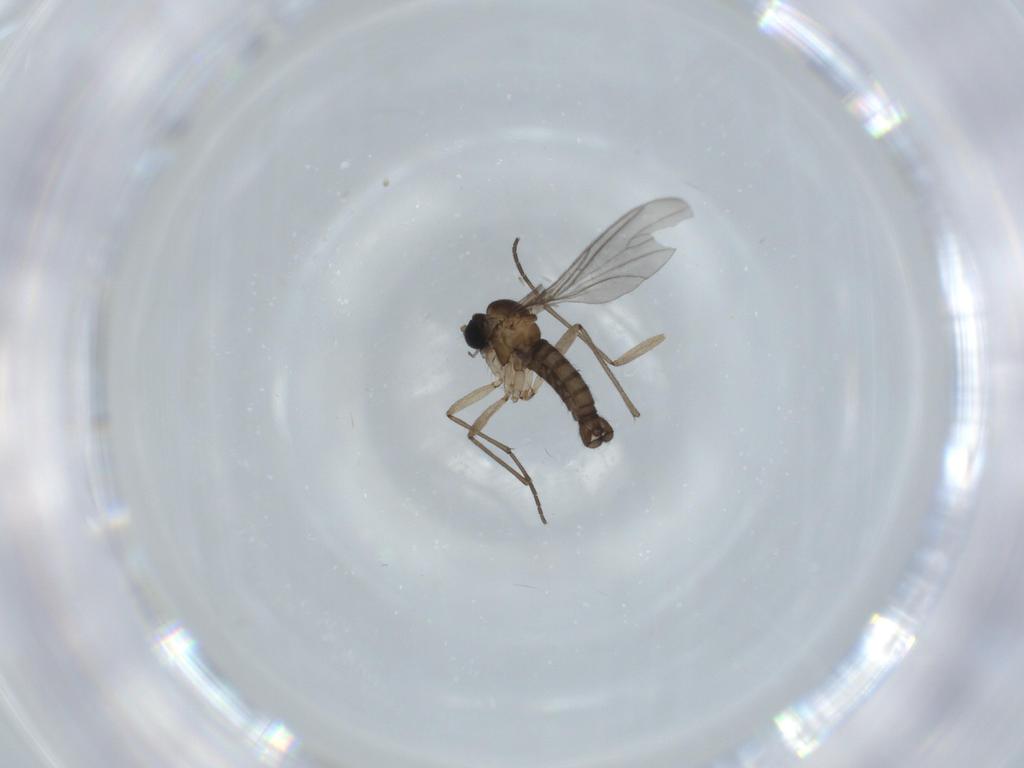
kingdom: Animalia
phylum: Arthropoda
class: Insecta
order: Diptera
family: Sciaridae
